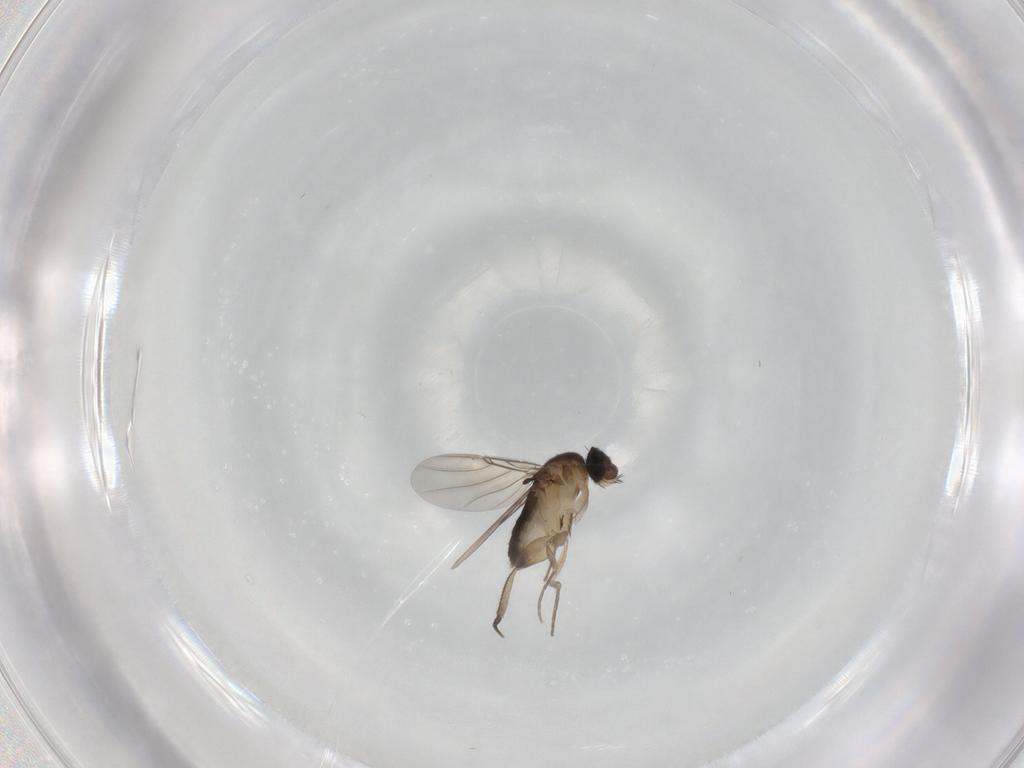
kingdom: Animalia
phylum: Arthropoda
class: Insecta
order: Diptera
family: Phoridae
